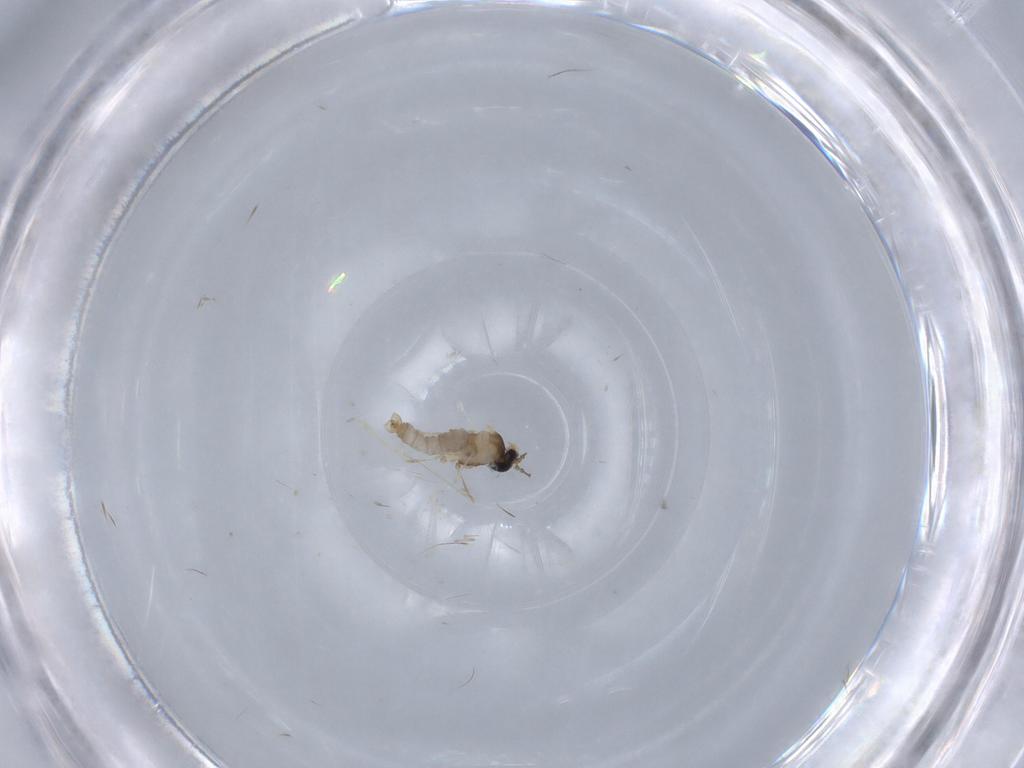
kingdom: Animalia
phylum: Arthropoda
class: Insecta
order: Diptera
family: Cecidomyiidae
